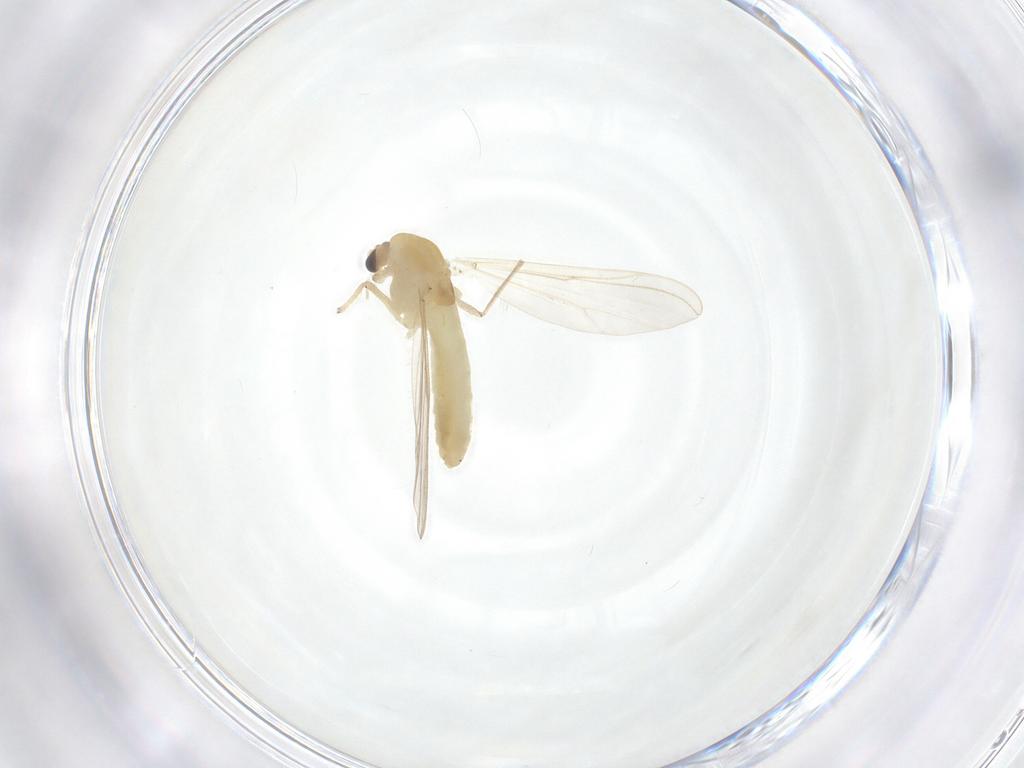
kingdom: Animalia
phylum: Arthropoda
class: Insecta
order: Diptera
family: Chironomidae
